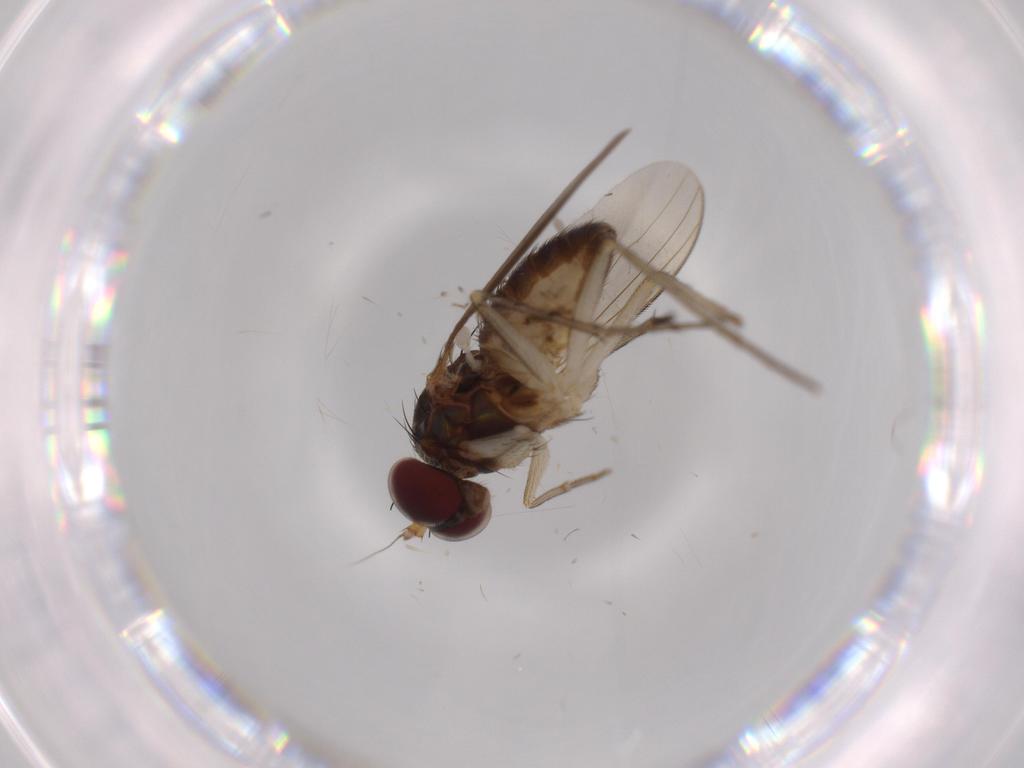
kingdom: Animalia
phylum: Arthropoda
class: Insecta
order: Diptera
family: Dolichopodidae
